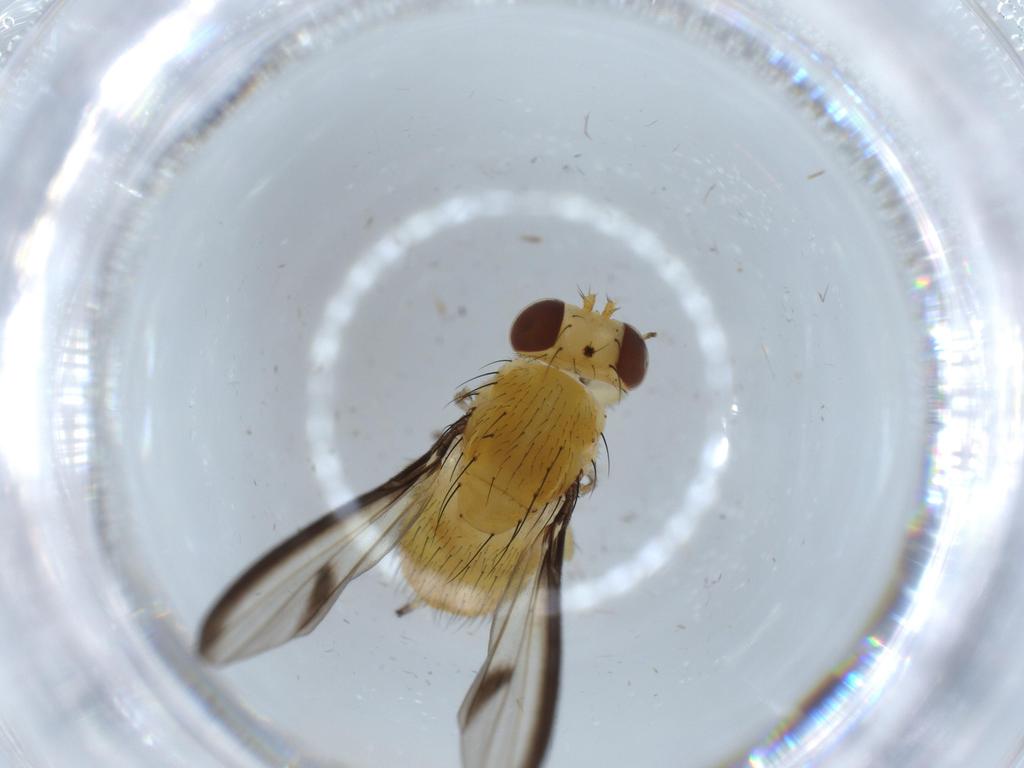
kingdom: Animalia
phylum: Arthropoda
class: Insecta
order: Diptera
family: Lauxaniidae
